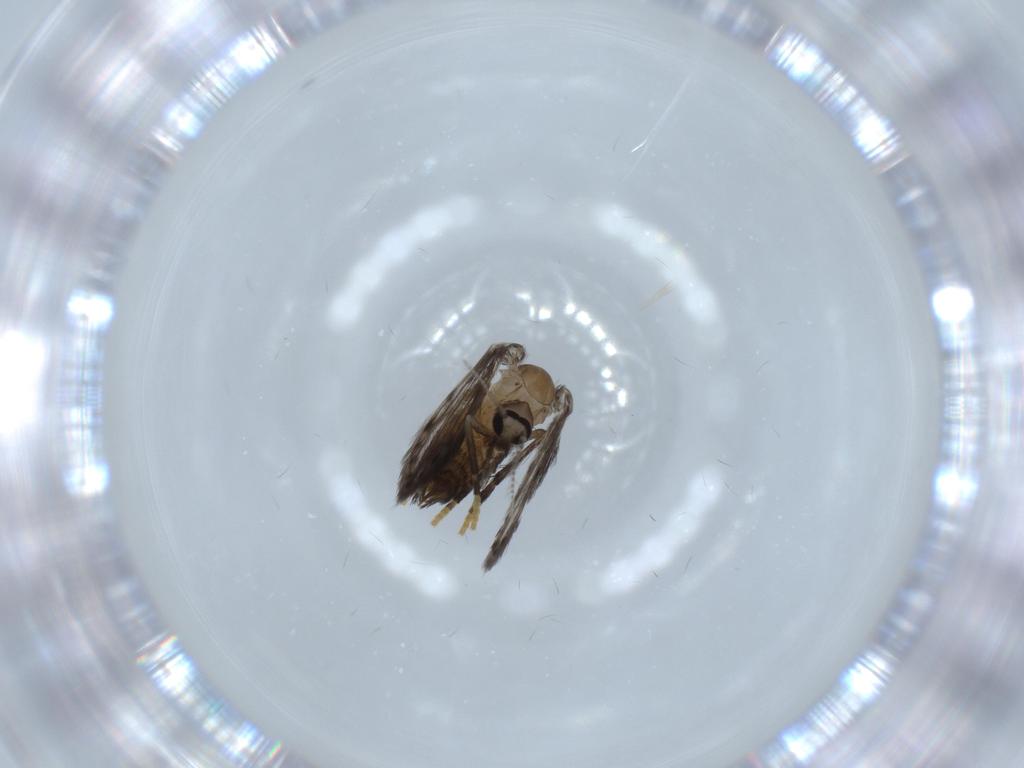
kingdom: Animalia
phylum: Arthropoda
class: Insecta
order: Diptera
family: Psychodidae
